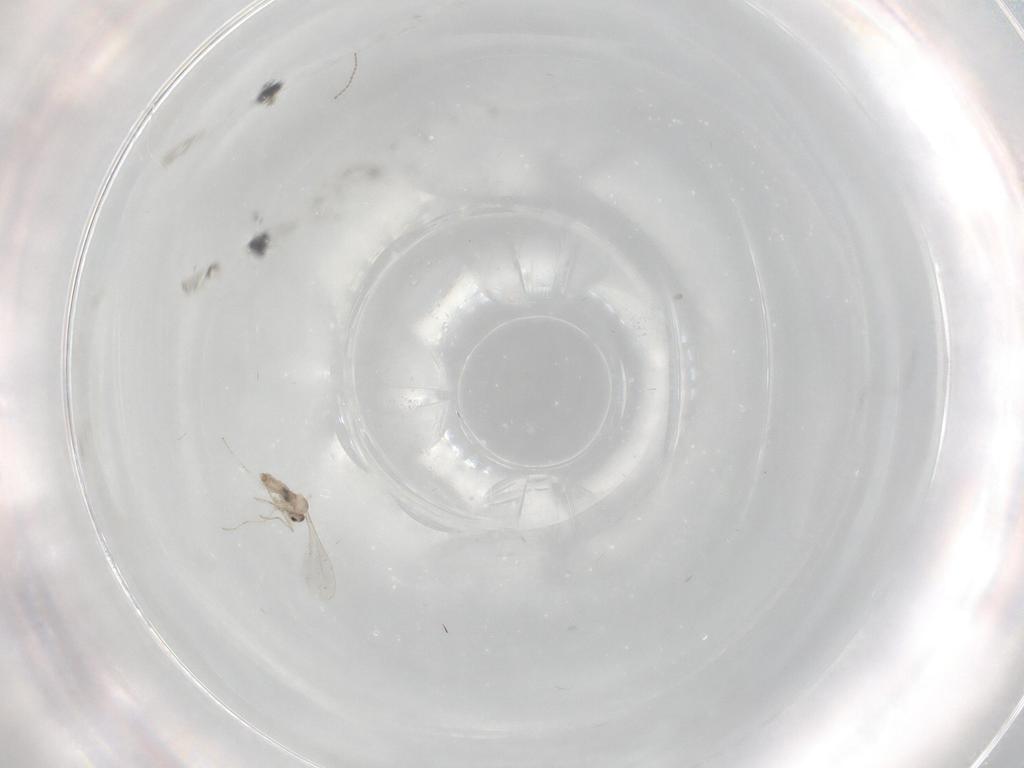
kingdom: Animalia
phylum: Arthropoda
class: Insecta
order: Diptera
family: Cecidomyiidae
